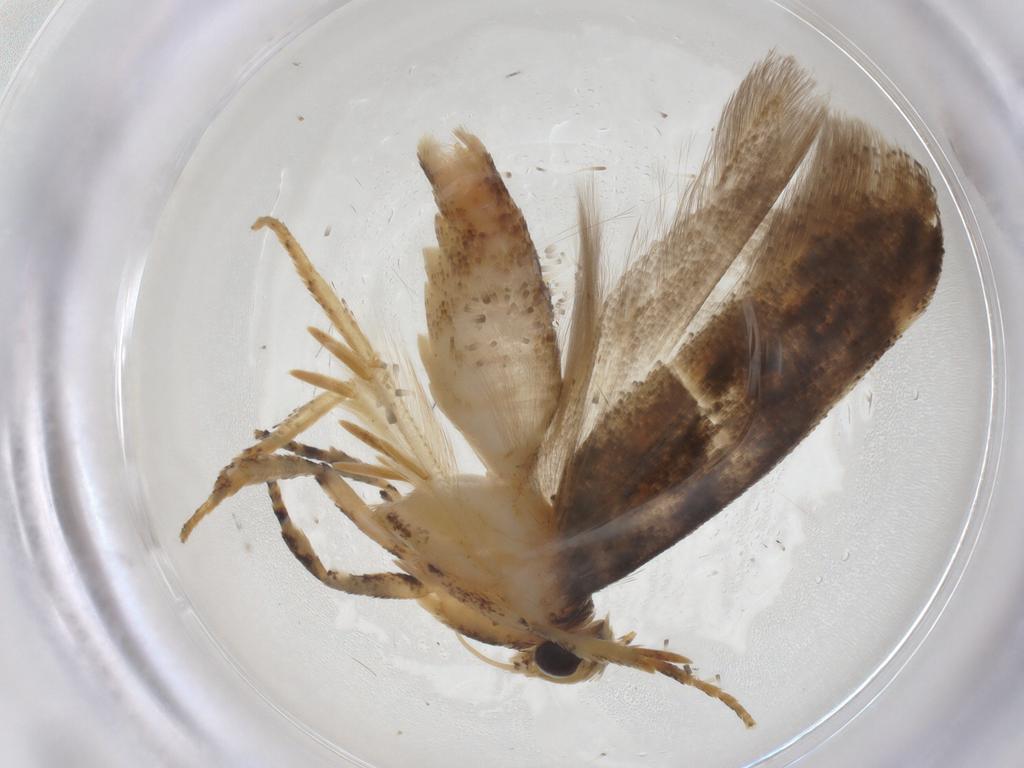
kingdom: Animalia
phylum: Arthropoda
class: Insecta
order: Lepidoptera
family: Gelechiidae
